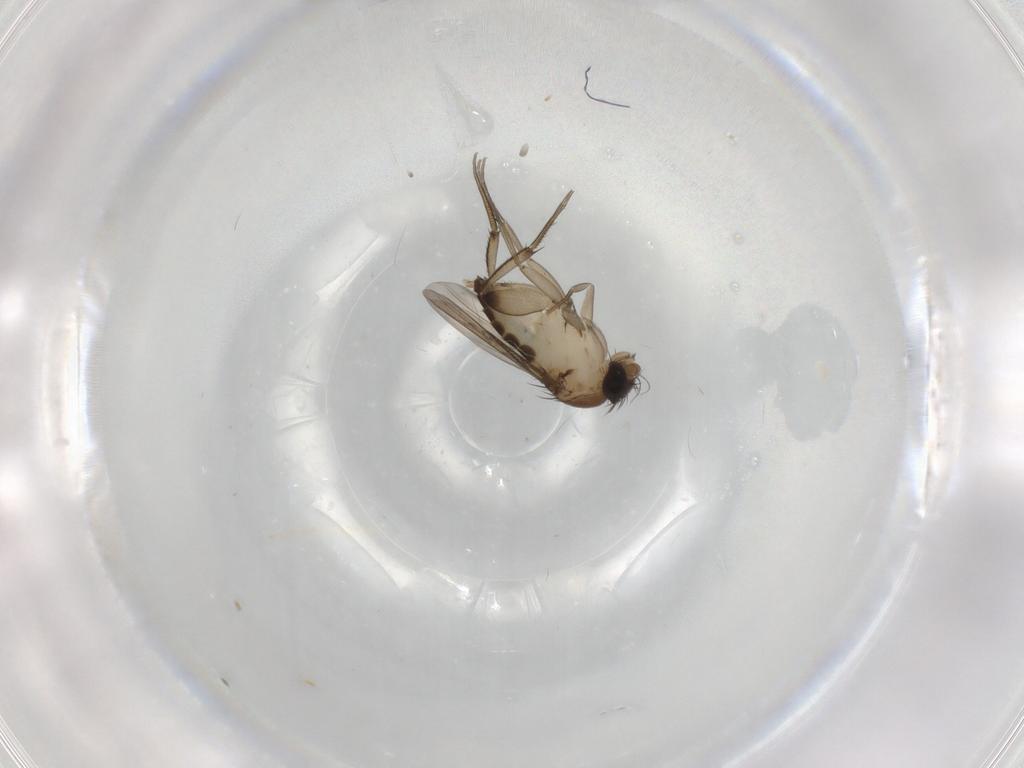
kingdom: Animalia
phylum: Arthropoda
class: Insecta
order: Diptera
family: Phoridae
